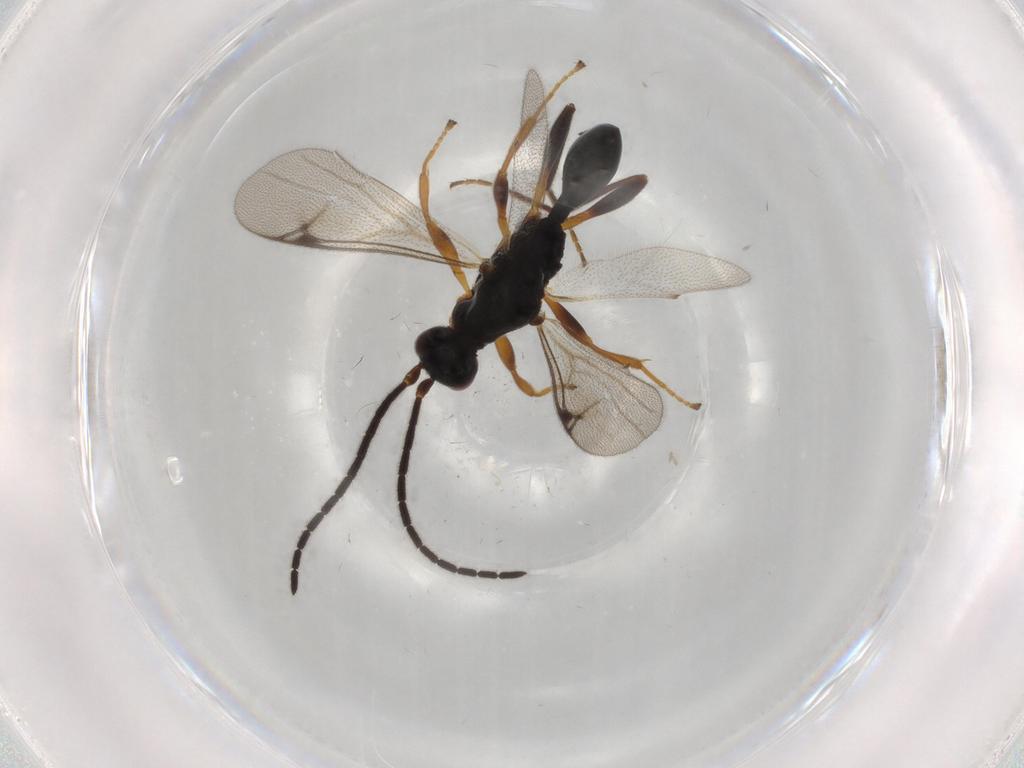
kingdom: Animalia
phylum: Arthropoda
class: Insecta
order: Hymenoptera
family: Proctotrupidae
